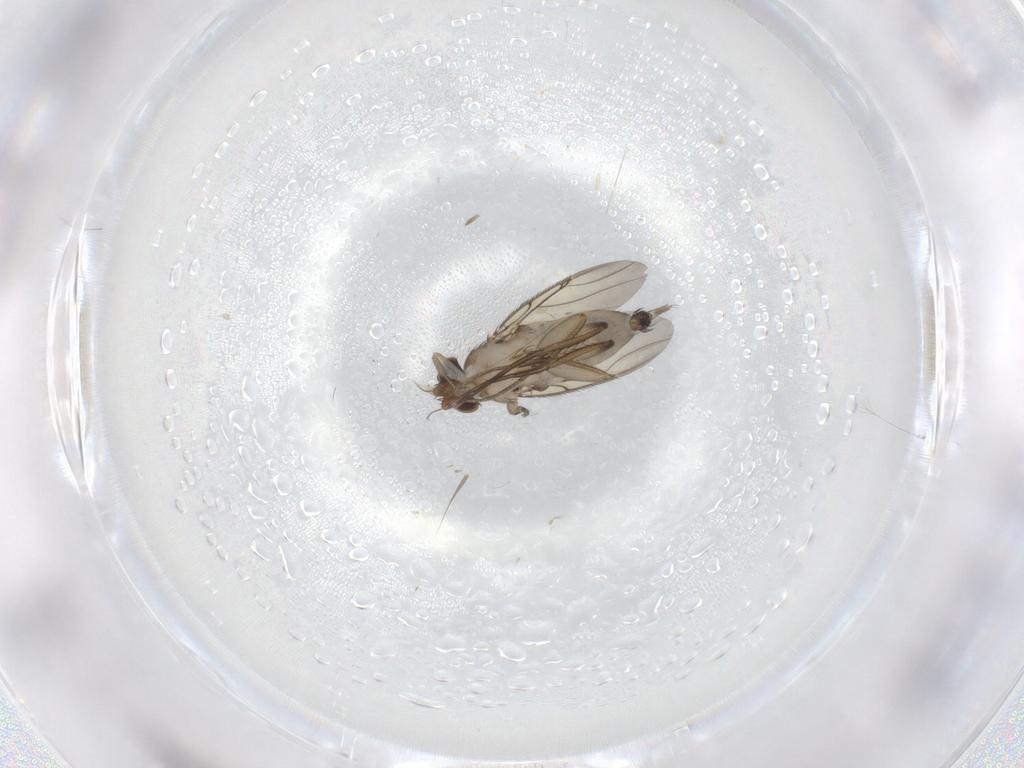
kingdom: Animalia
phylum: Arthropoda
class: Insecta
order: Diptera
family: Phoridae
